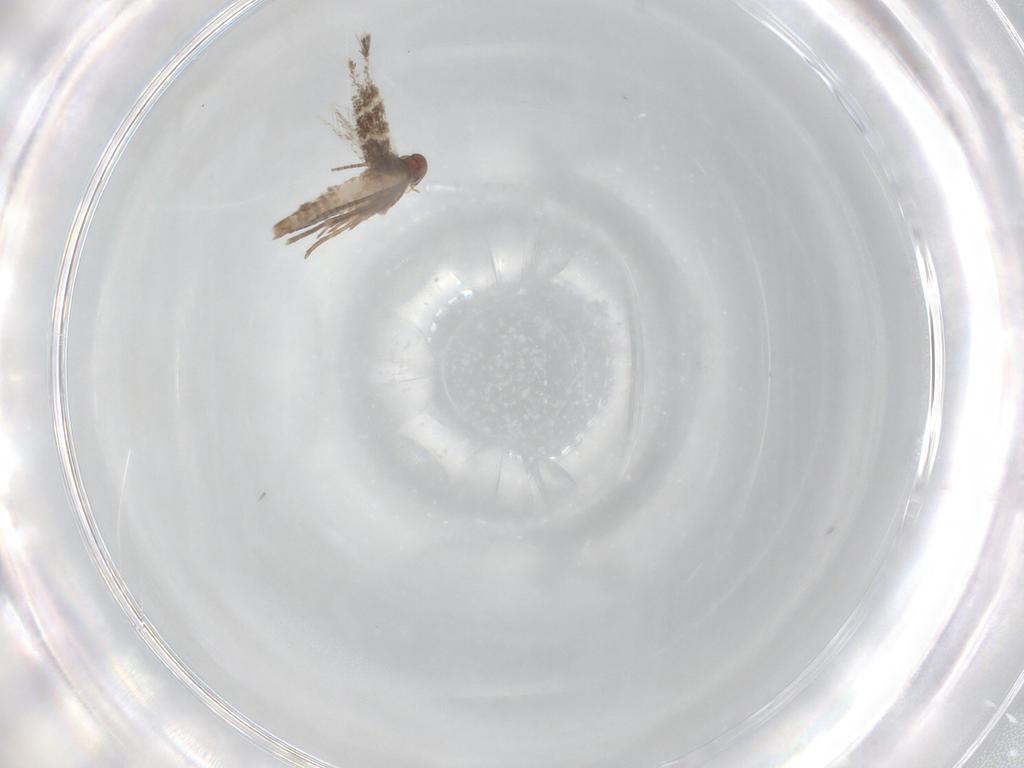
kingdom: Animalia
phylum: Arthropoda
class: Insecta
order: Lepidoptera
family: Gracillariidae
